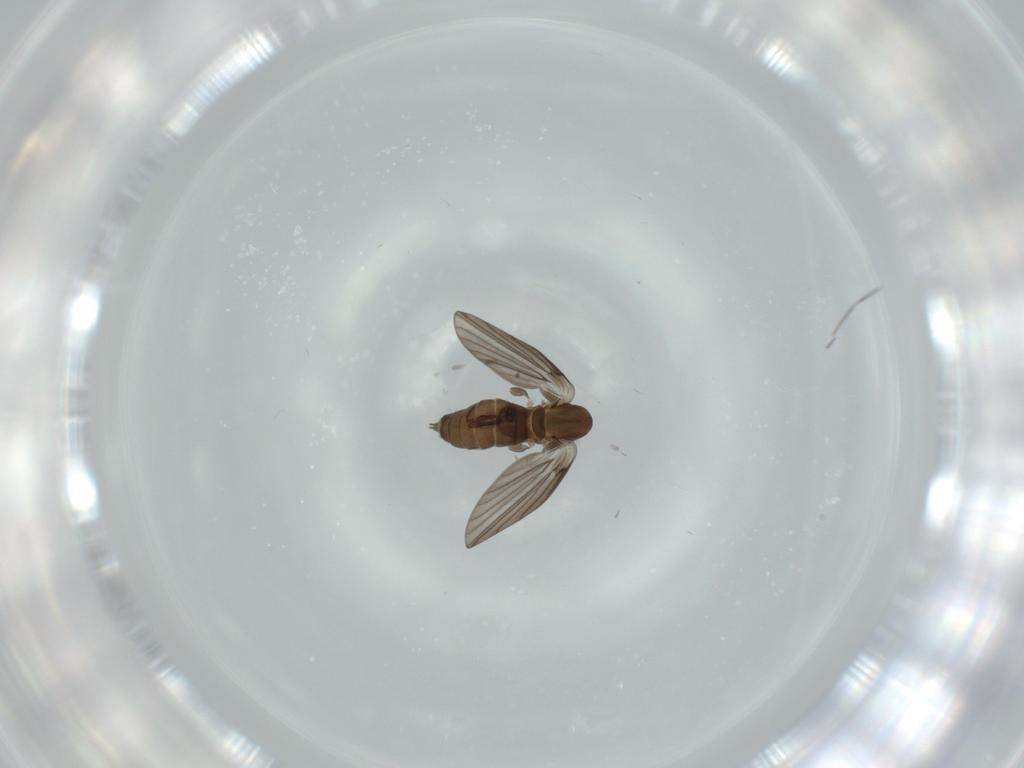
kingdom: Animalia
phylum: Arthropoda
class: Insecta
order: Diptera
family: Psychodidae
